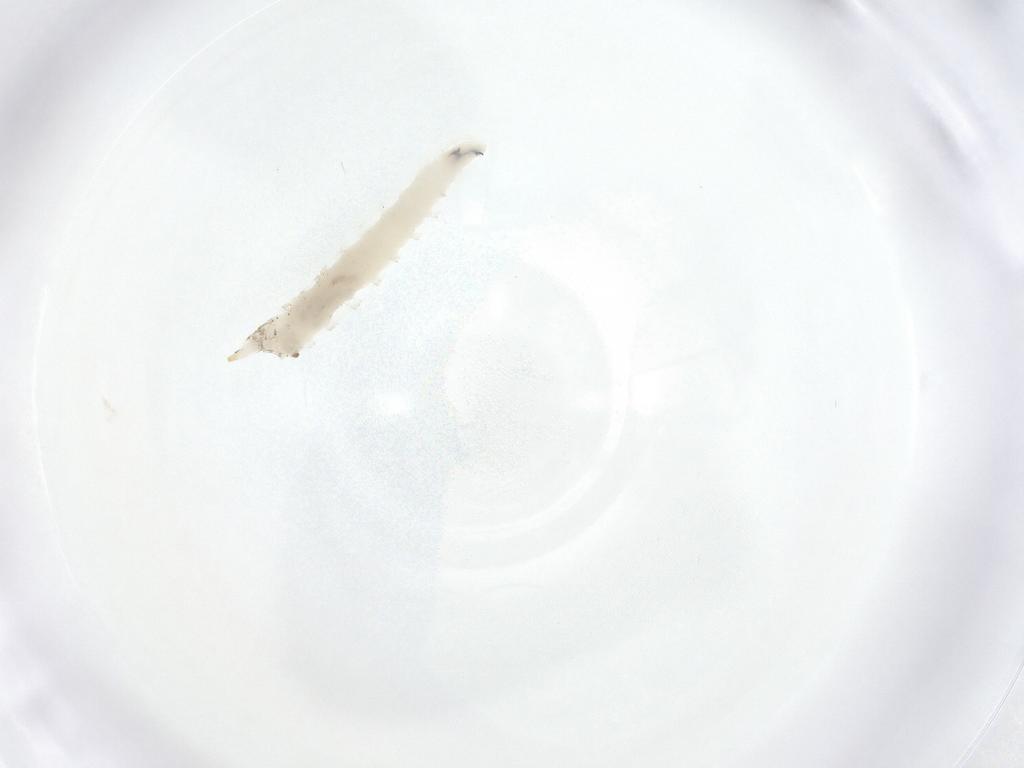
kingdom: Animalia
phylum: Arthropoda
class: Insecta
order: Diptera
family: Phoridae
